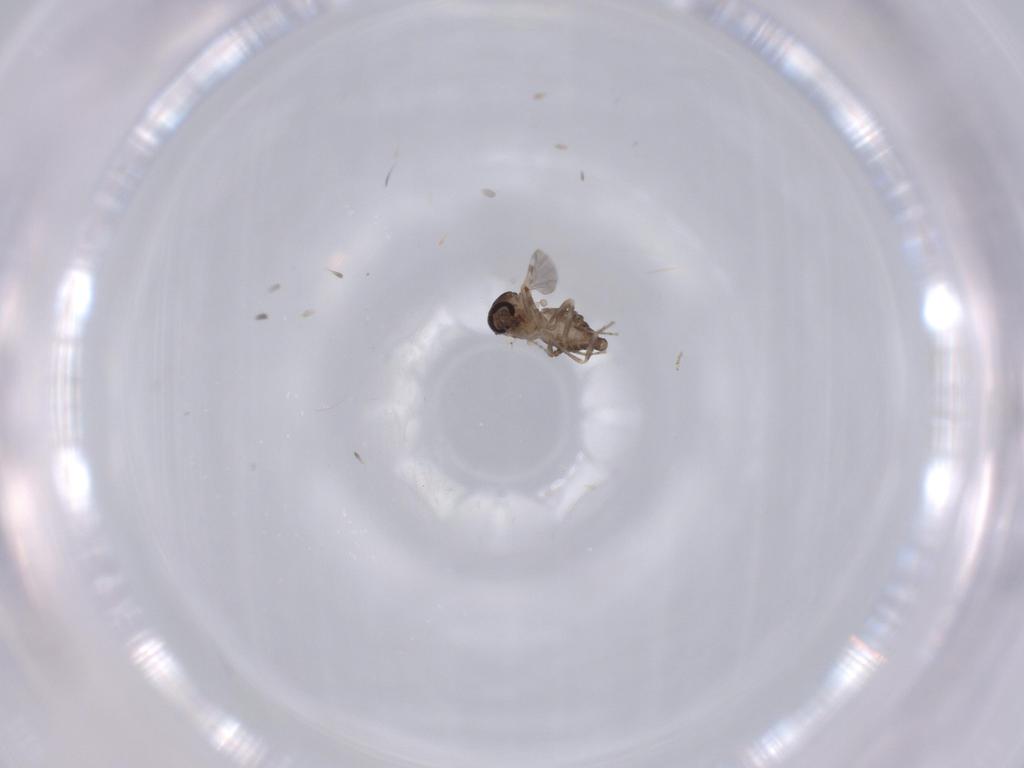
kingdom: Animalia
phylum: Arthropoda
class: Insecta
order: Diptera
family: Ceratopogonidae
